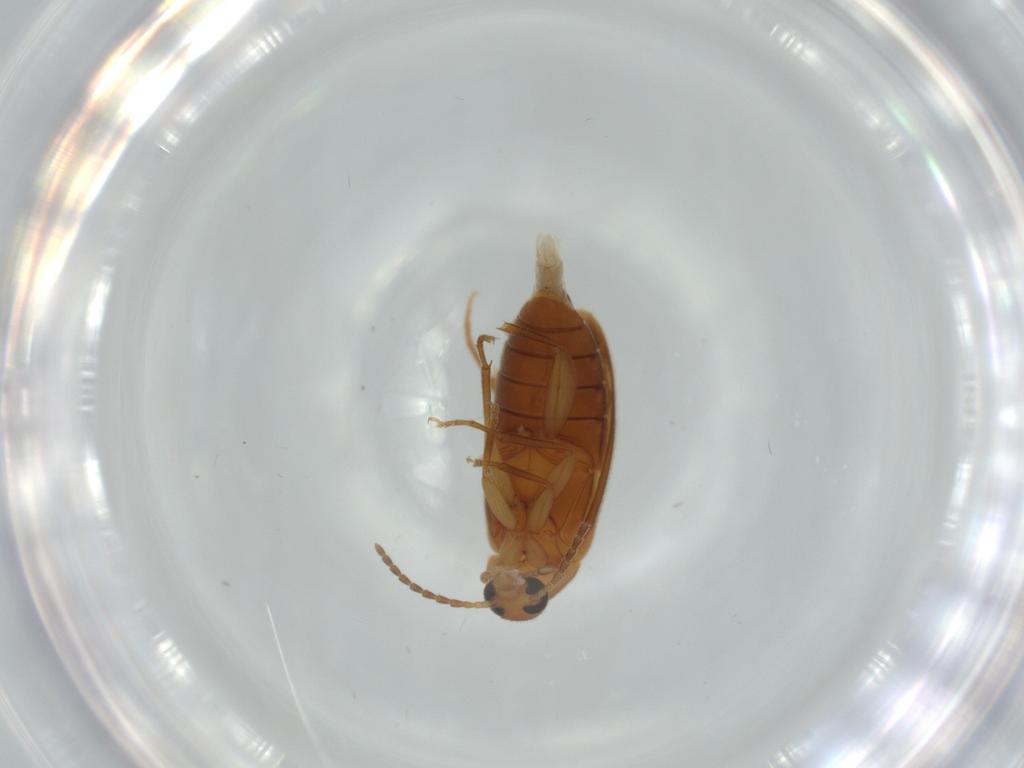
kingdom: Animalia
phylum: Arthropoda
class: Insecta
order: Coleoptera
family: Scraptiidae
